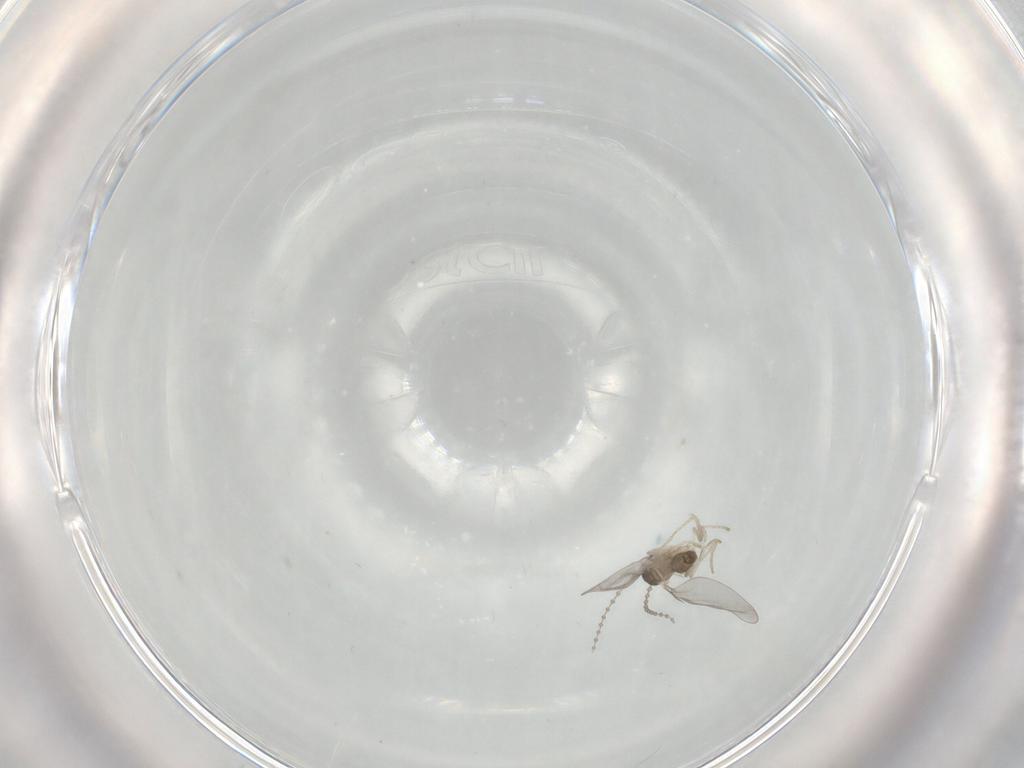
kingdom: Animalia
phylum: Arthropoda
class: Insecta
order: Diptera
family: Cecidomyiidae
